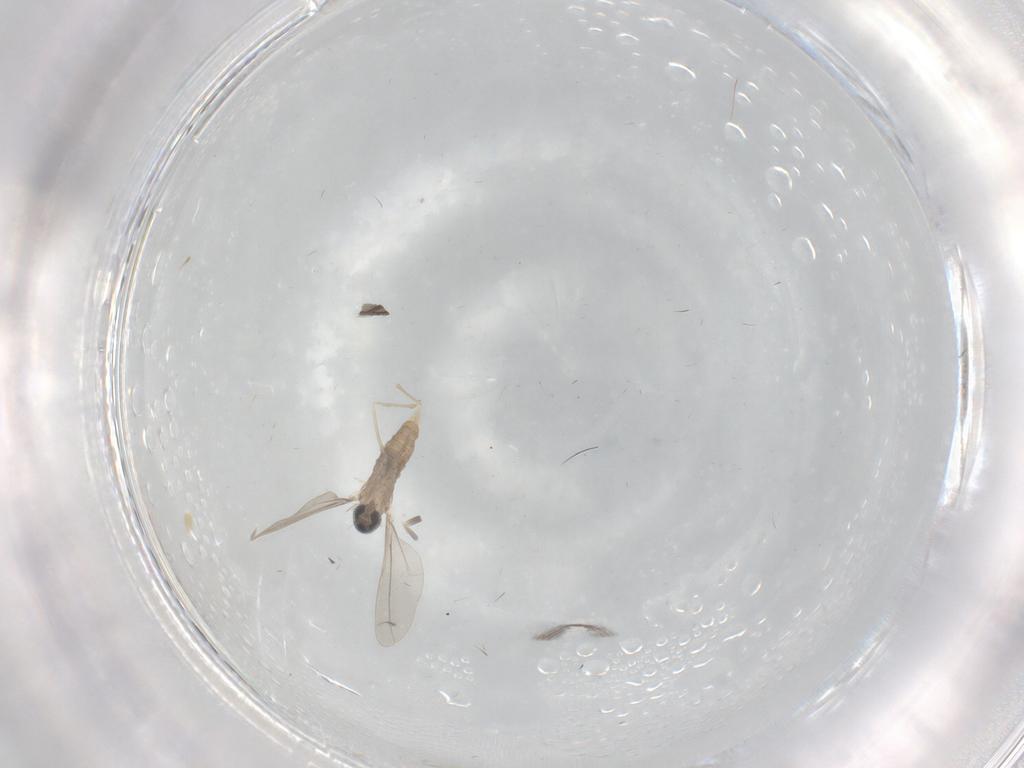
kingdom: Animalia
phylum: Arthropoda
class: Insecta
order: Diptera
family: Cecidomyiidae
